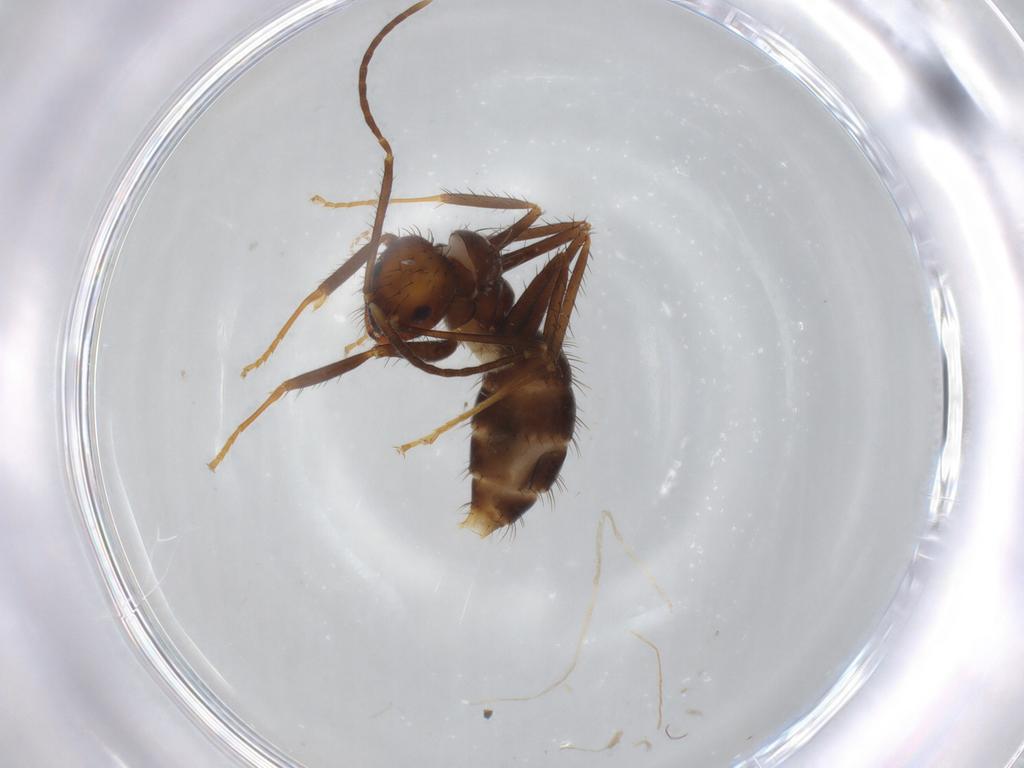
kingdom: Animalia
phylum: Arthropoda
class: Insecta
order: Hymenoptera
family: Formicidae
